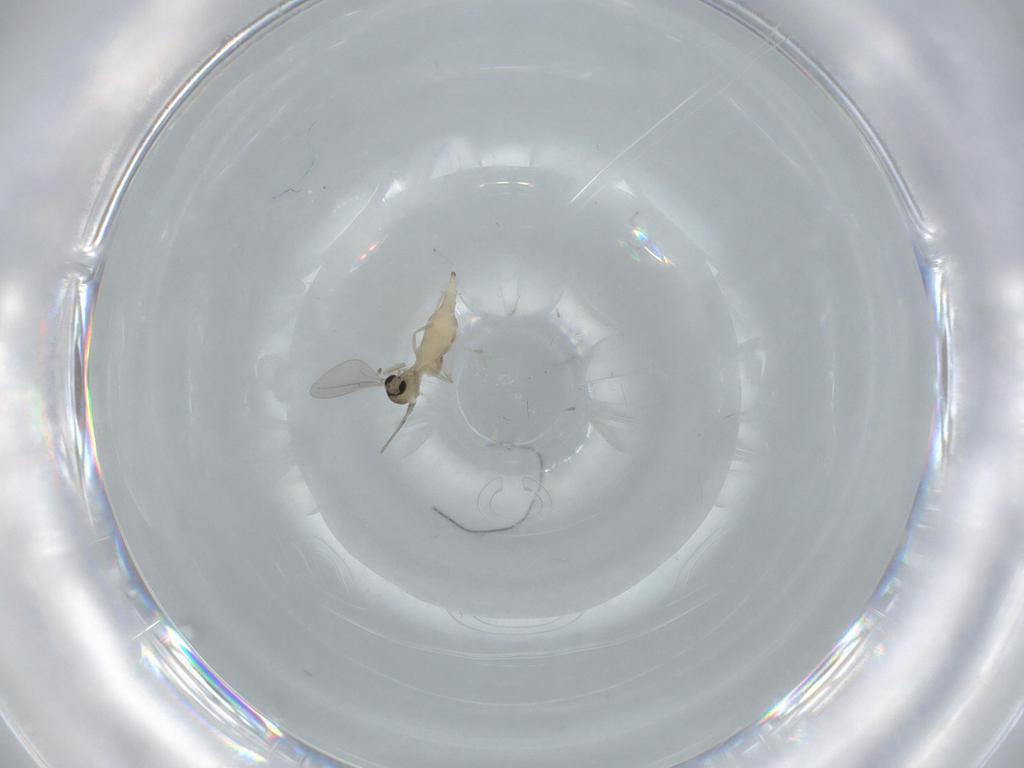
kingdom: Animalia
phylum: Arthropoda
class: Insecta
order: Diptera
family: Cecidomyiidae
